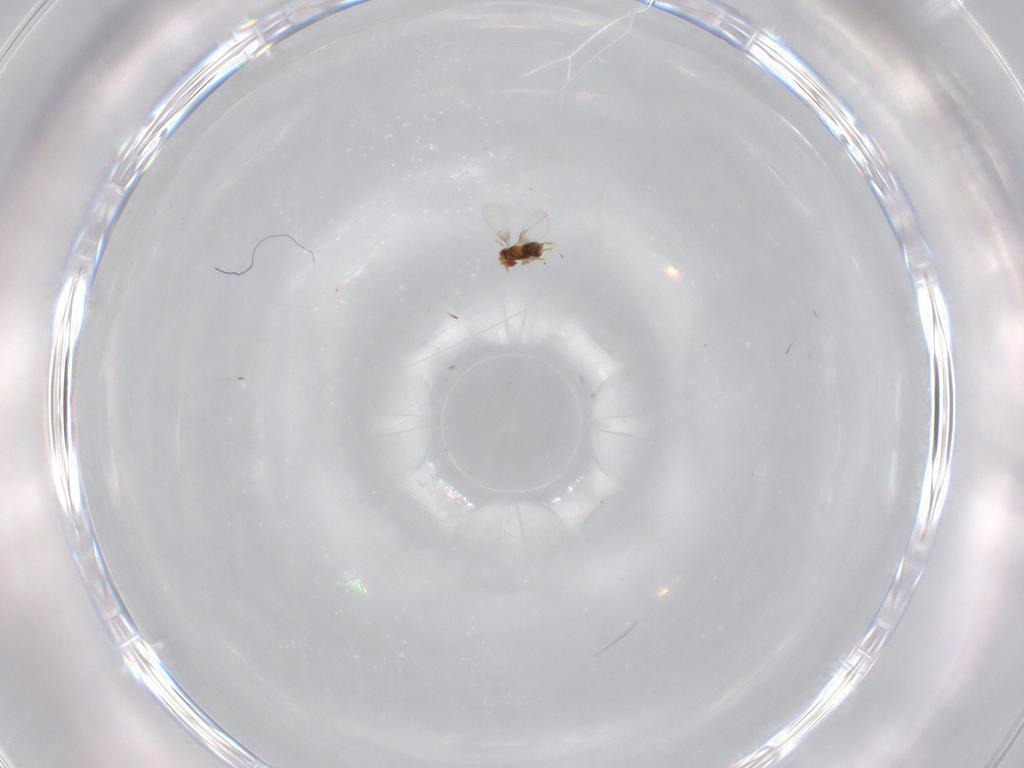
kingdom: Animalia
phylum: Arthropoda
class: Insecta
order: Hymenoptera
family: Trichogrammatidae
